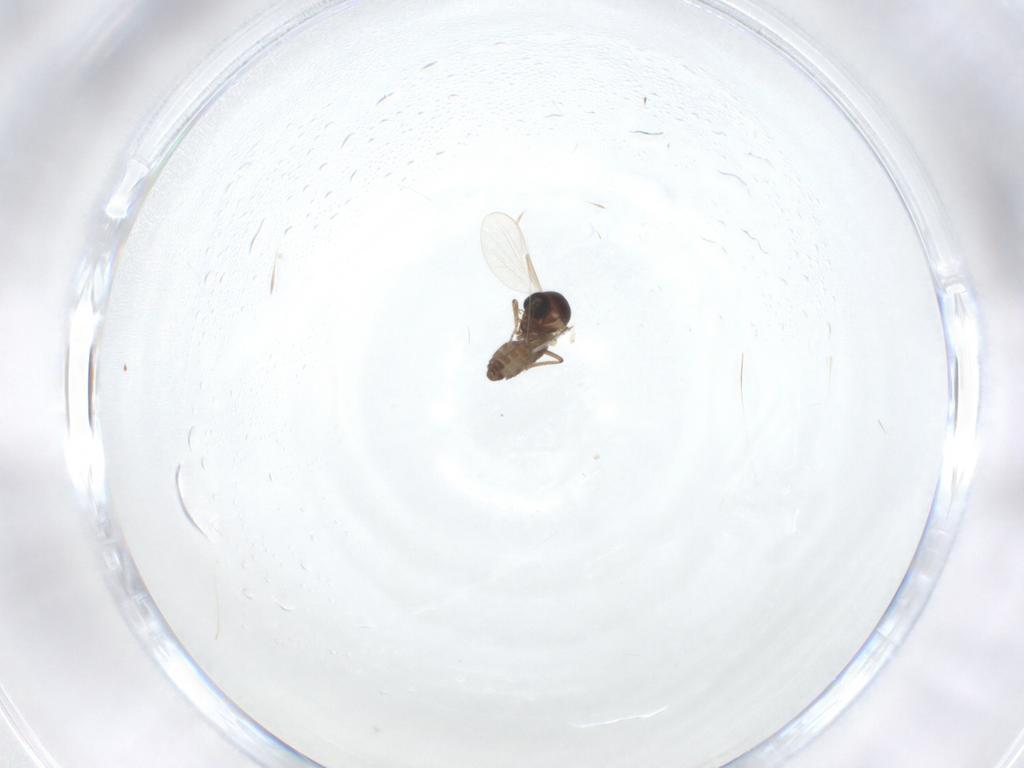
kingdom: Animalia
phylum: Arthropoda
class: Insecta
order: Diptera
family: Ceratopogonidae
